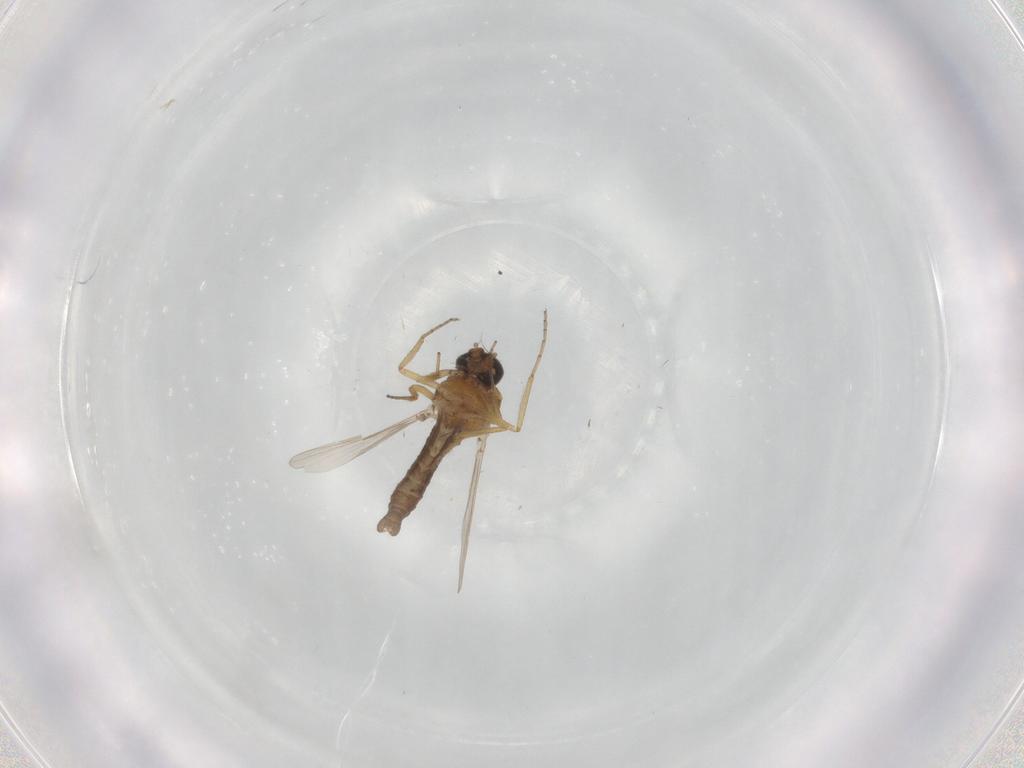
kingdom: Animalia
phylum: Arthropoda
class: Insecta
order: Diptera
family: Ceratopogonidae
